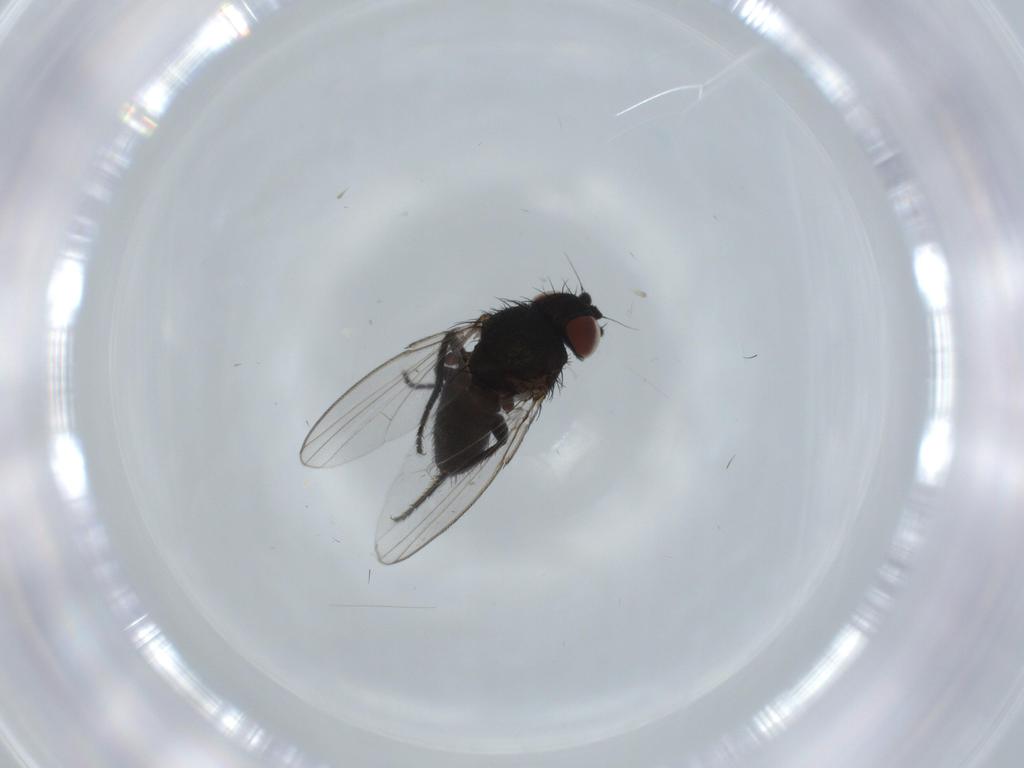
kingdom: Animalia
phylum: Arthropoda
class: Insecta
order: Diptera
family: Milichiidae
